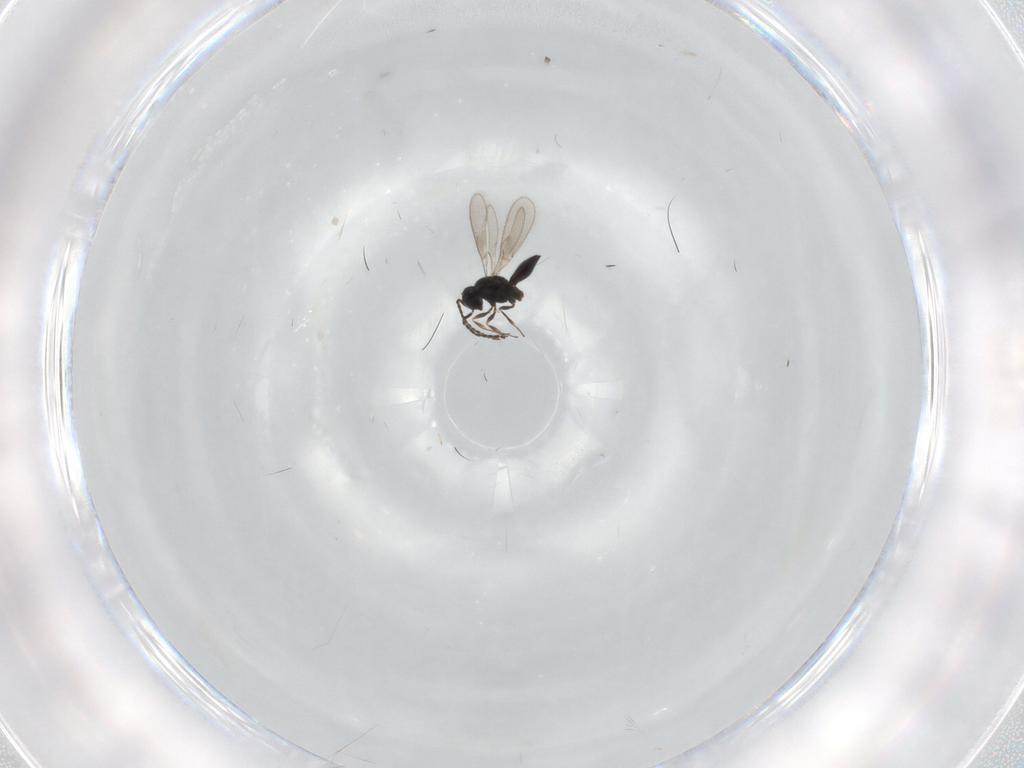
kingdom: Animalia
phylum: Arthropoda
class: Insecta
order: Hymenoptera
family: Scelionidae
